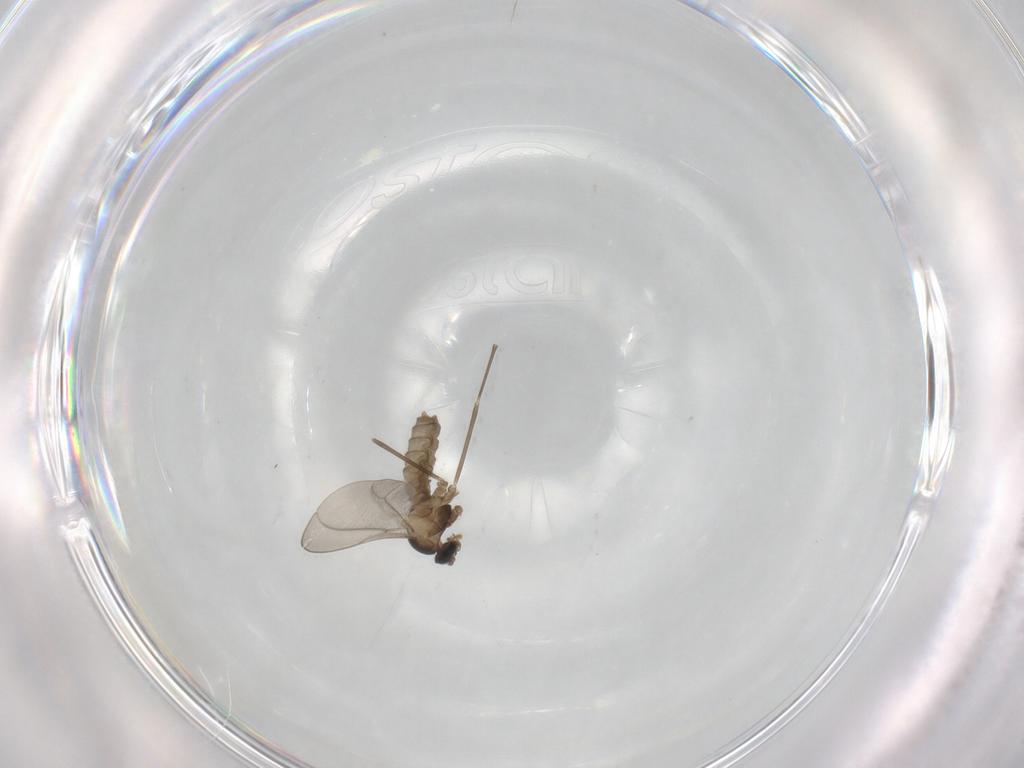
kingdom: Animalia
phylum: Arthropoda
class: Insecta
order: Diptera
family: Cecidomyiidae
